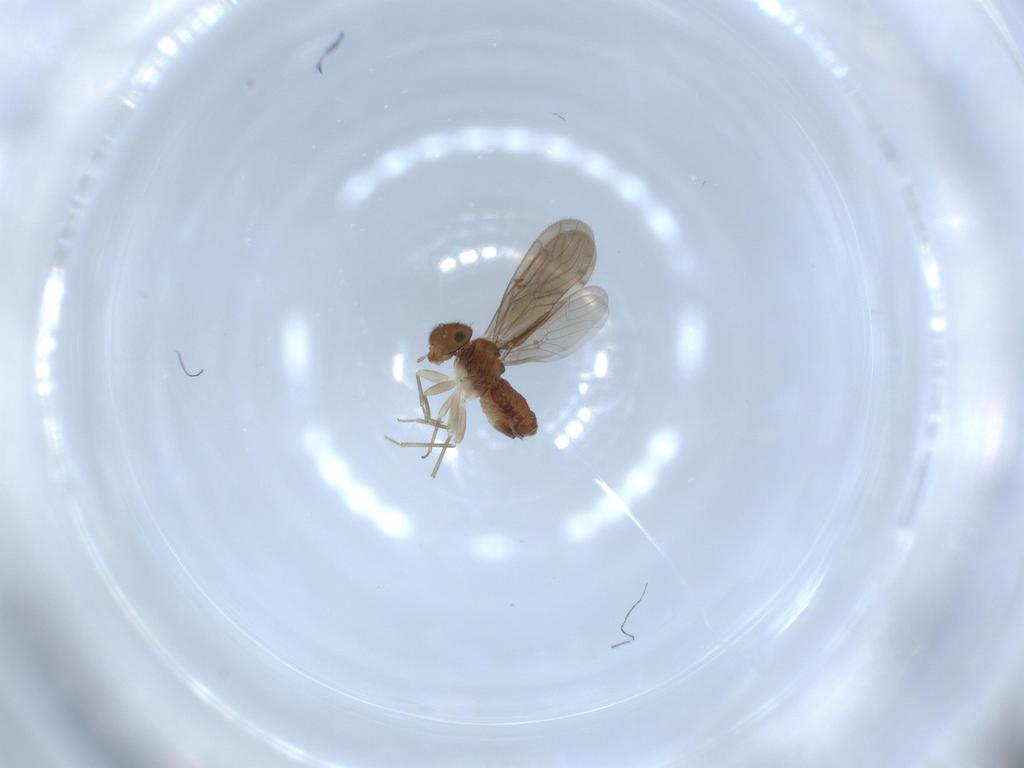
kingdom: Animalia
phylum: Arthropoda
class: Insecta
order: Psocodea
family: Ectopsocidae
